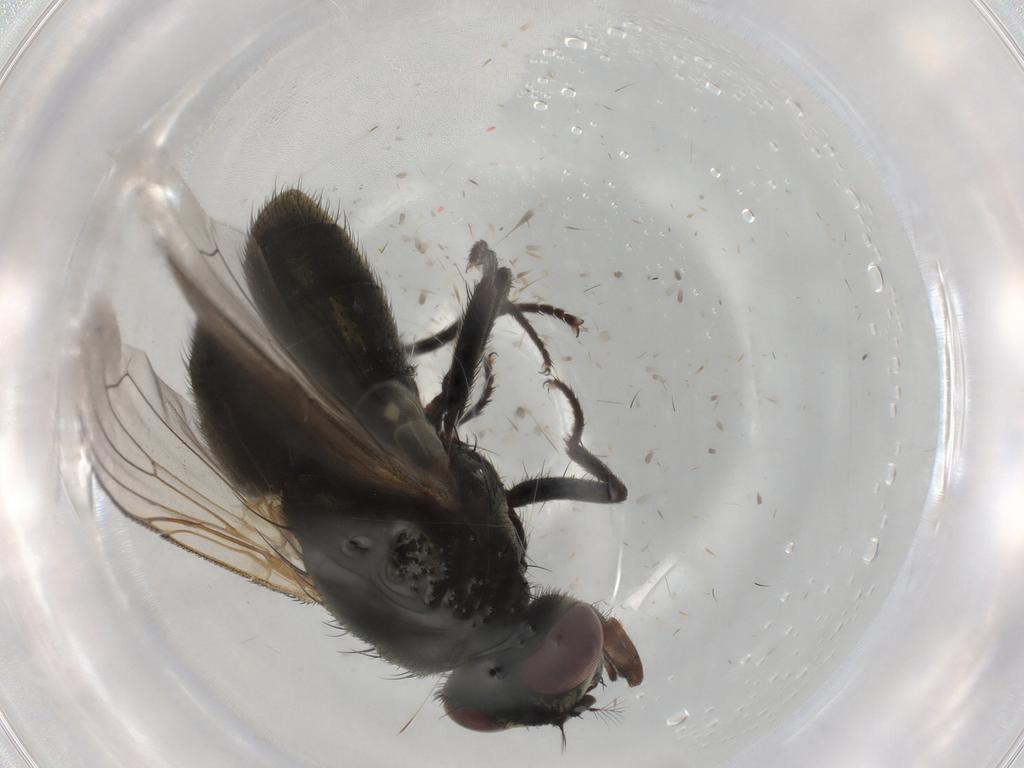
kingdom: Animalia
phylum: Arthropoda
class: Insecta
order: Diptera
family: Muscidae
